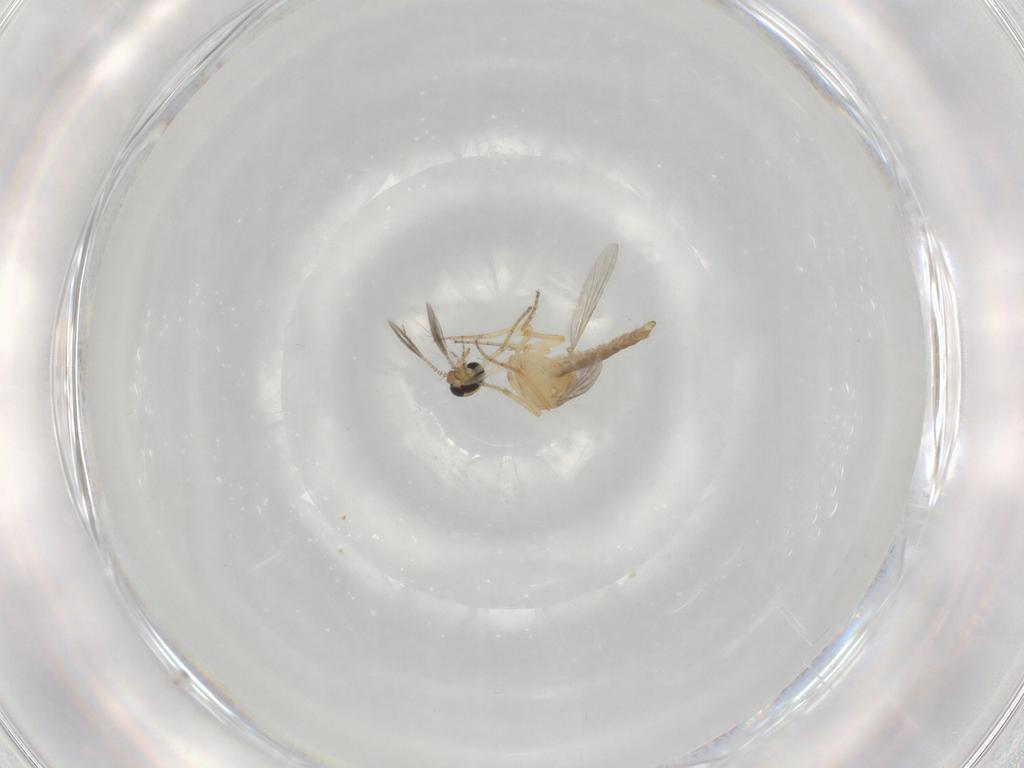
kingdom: Animalia
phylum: Arthropoda
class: Insecta
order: Diptera
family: Ceratopogonidae
